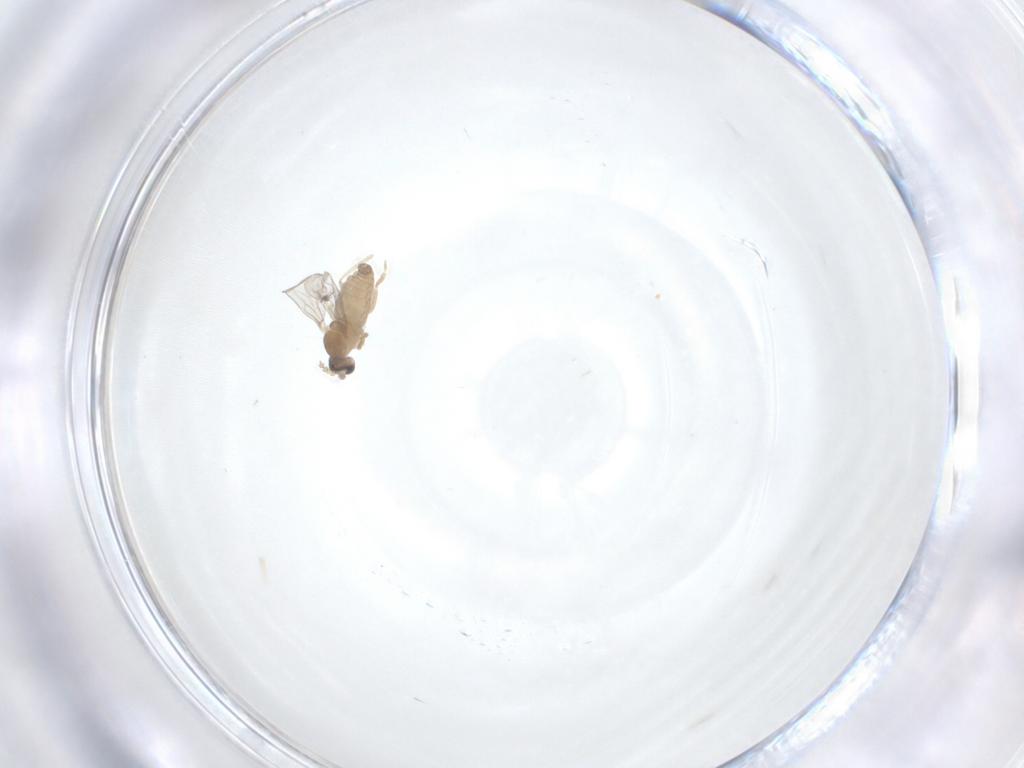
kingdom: Animalia
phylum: Arthropoda
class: Insecta
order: Diptera
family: Cecidomyiidae
